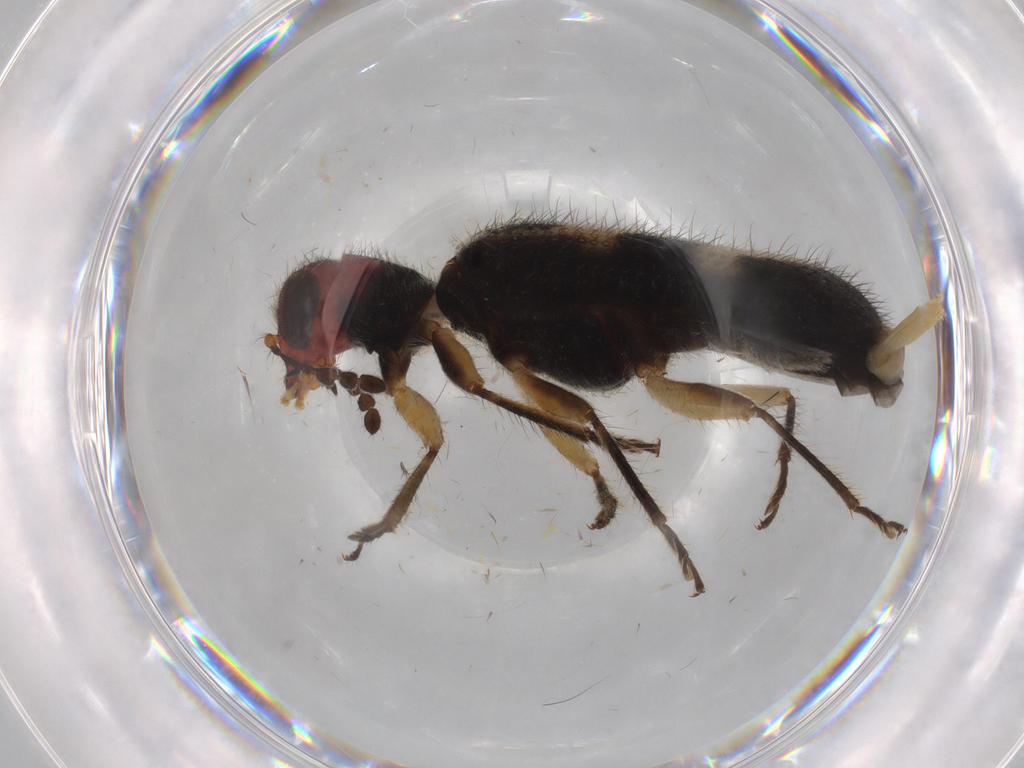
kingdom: Animalia
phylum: Arthropoda
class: Insecta
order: Coleoptera
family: Cleridae
